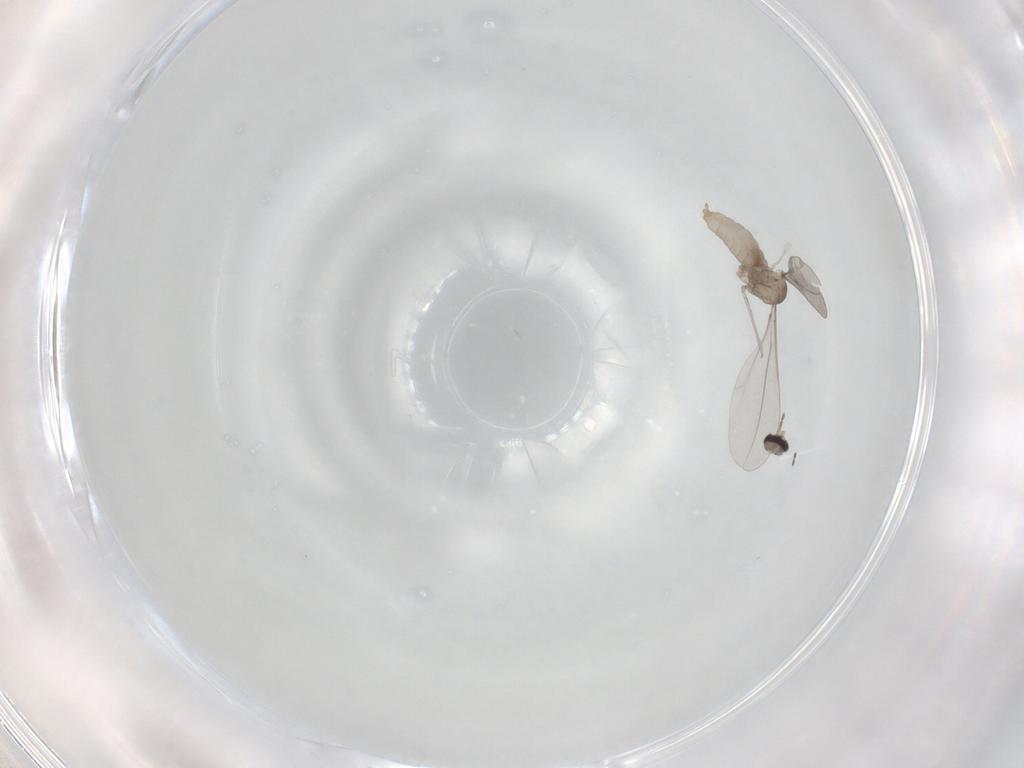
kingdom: Animalia
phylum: Arthropoda
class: Insecta
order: Diptera
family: Cecidomyiidae
